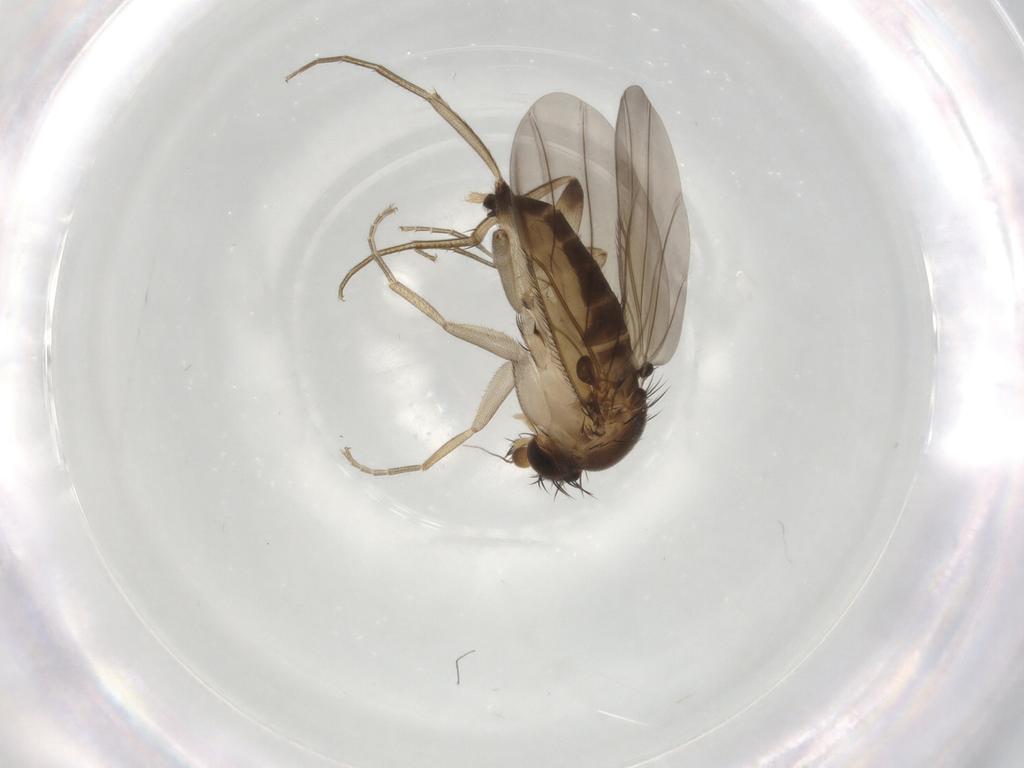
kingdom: Animalia
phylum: Arthropoda
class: Insecta
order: Diptera
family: Phoridae
